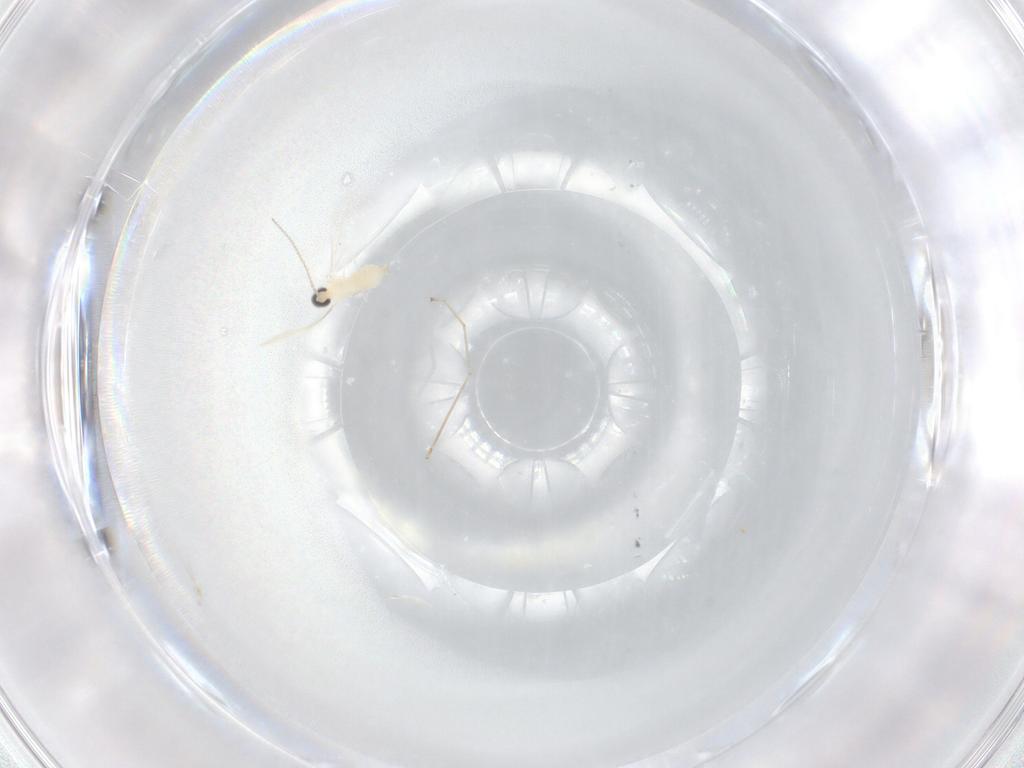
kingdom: Animalia
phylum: Arthropoda
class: Insecta
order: Diptera
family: Cecidomyiidae
